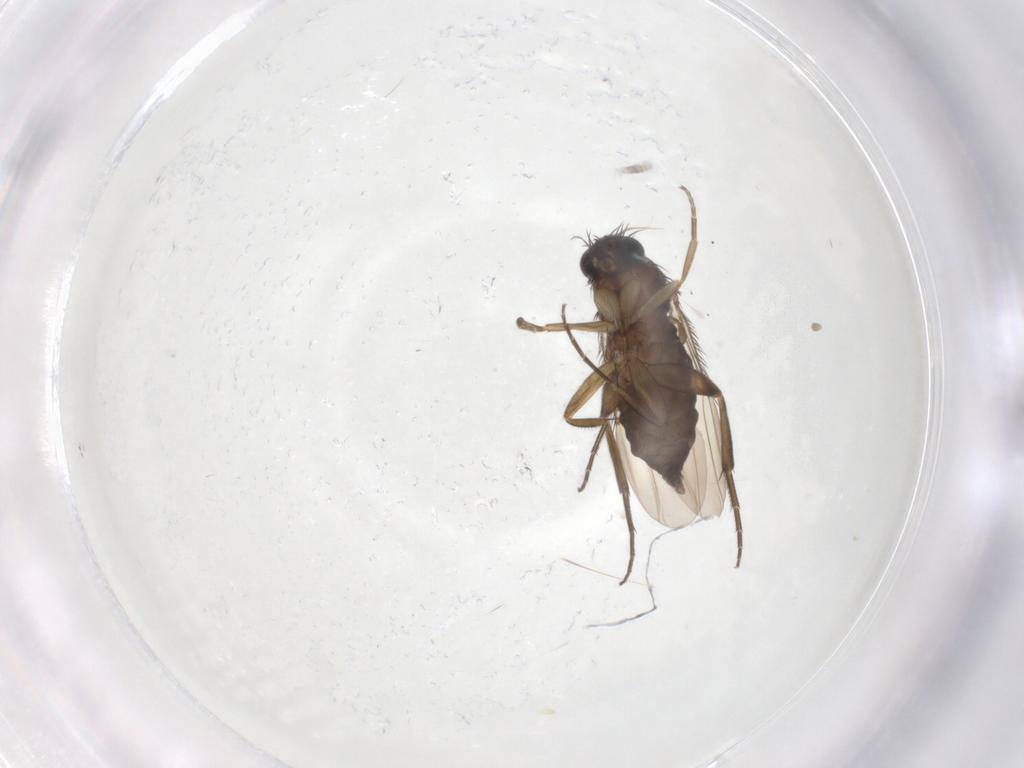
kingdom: Animalia
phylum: Arthropoda
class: Insecta
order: Diptera
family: Phoridae
